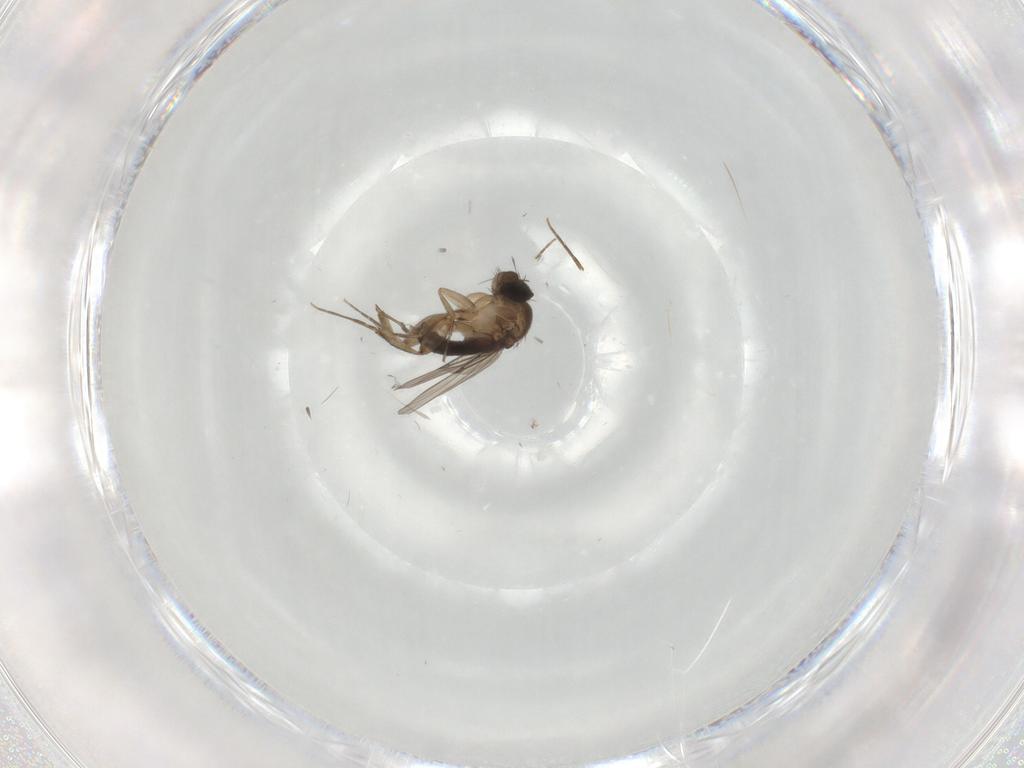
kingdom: Animalia
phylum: Arthropoda
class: Insecta
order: Diptera
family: Phoridae
